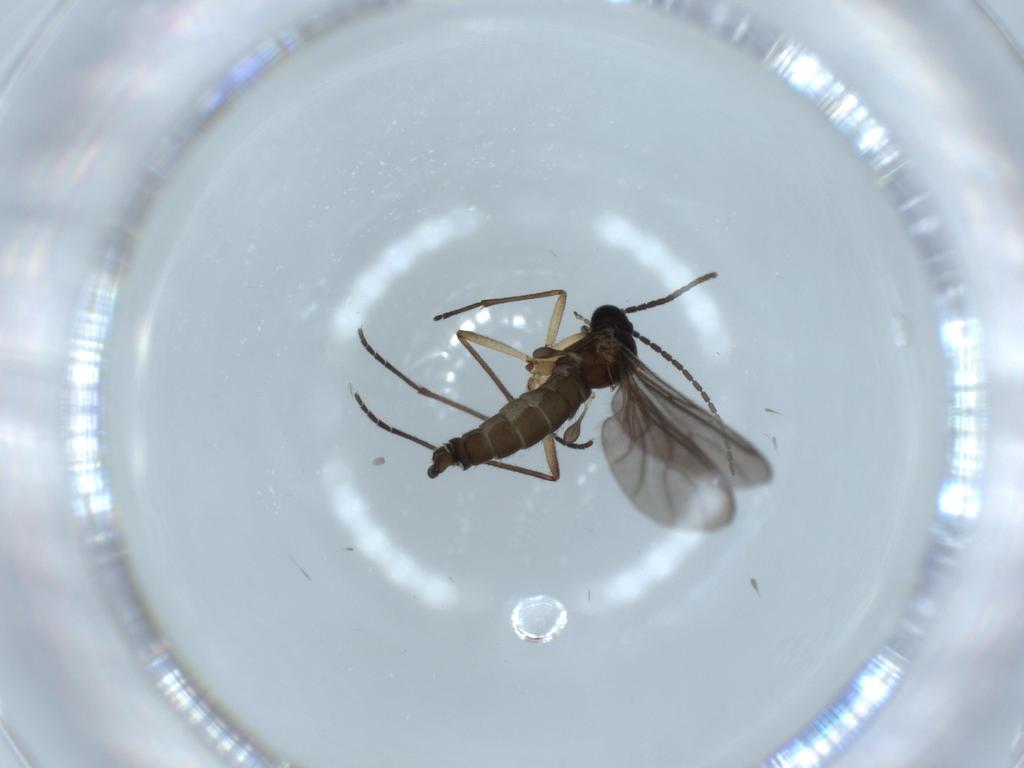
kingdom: Animalia
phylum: Arthropoda
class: Insecta
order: Diptera
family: Sciaridae
